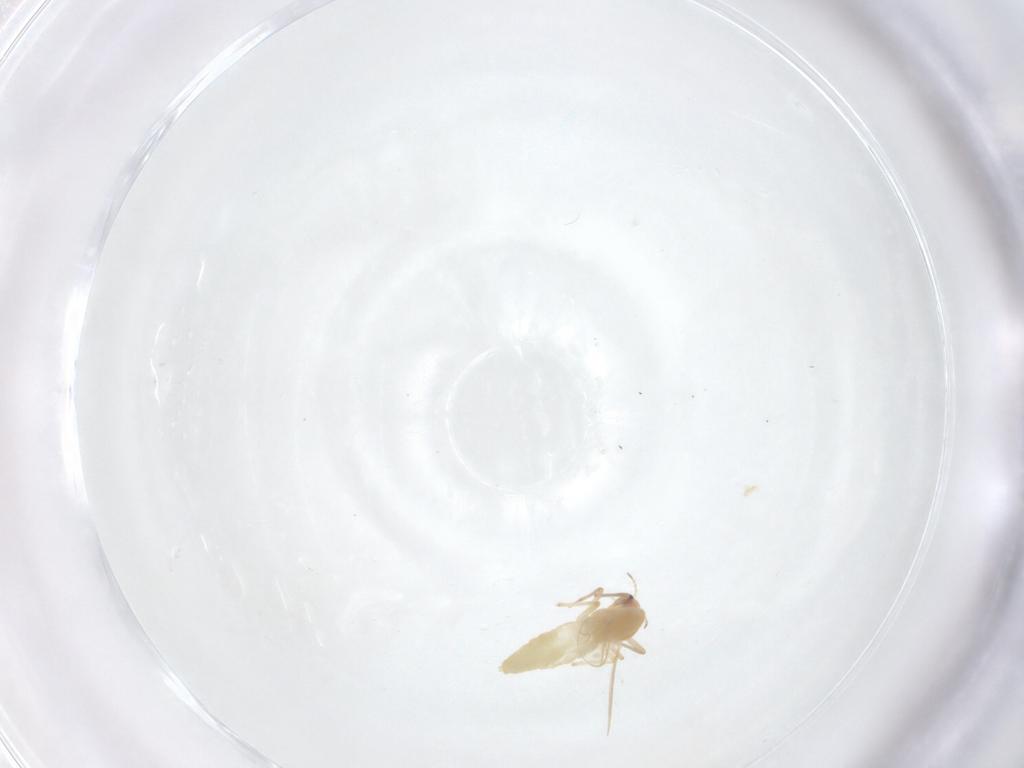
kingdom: Animalia
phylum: Arthropoda
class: Insecta
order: Diptera
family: Chironomidae
